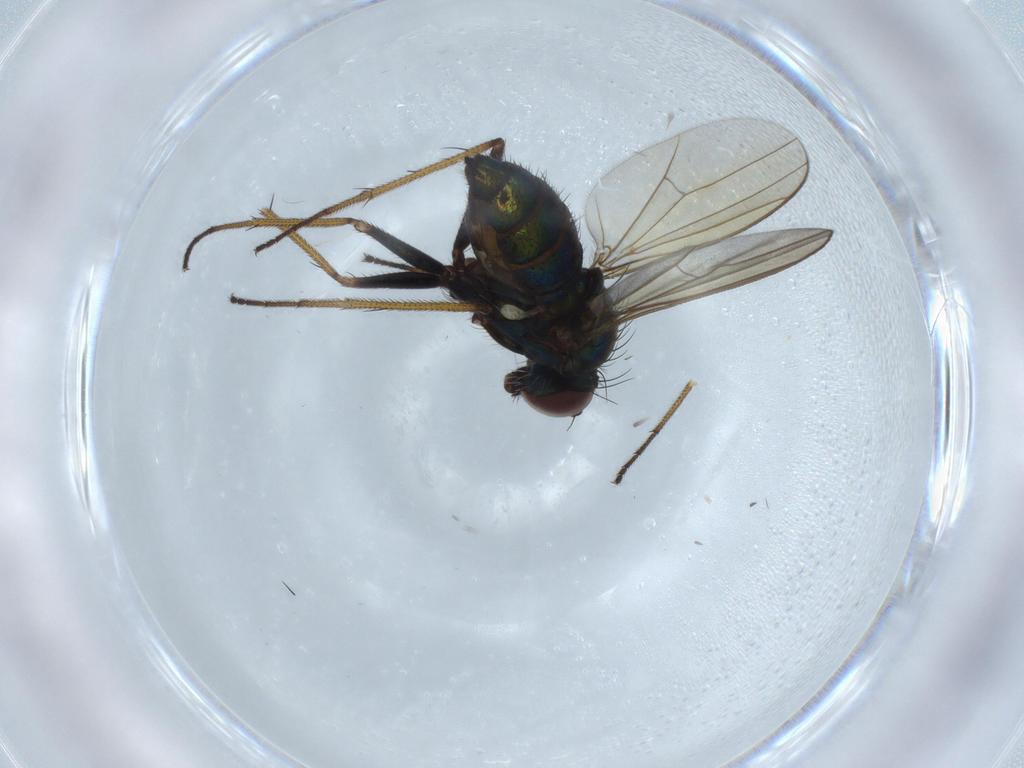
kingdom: Animalia
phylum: Arthropoda
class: Insecta
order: Diptera
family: Dolichopodidae
